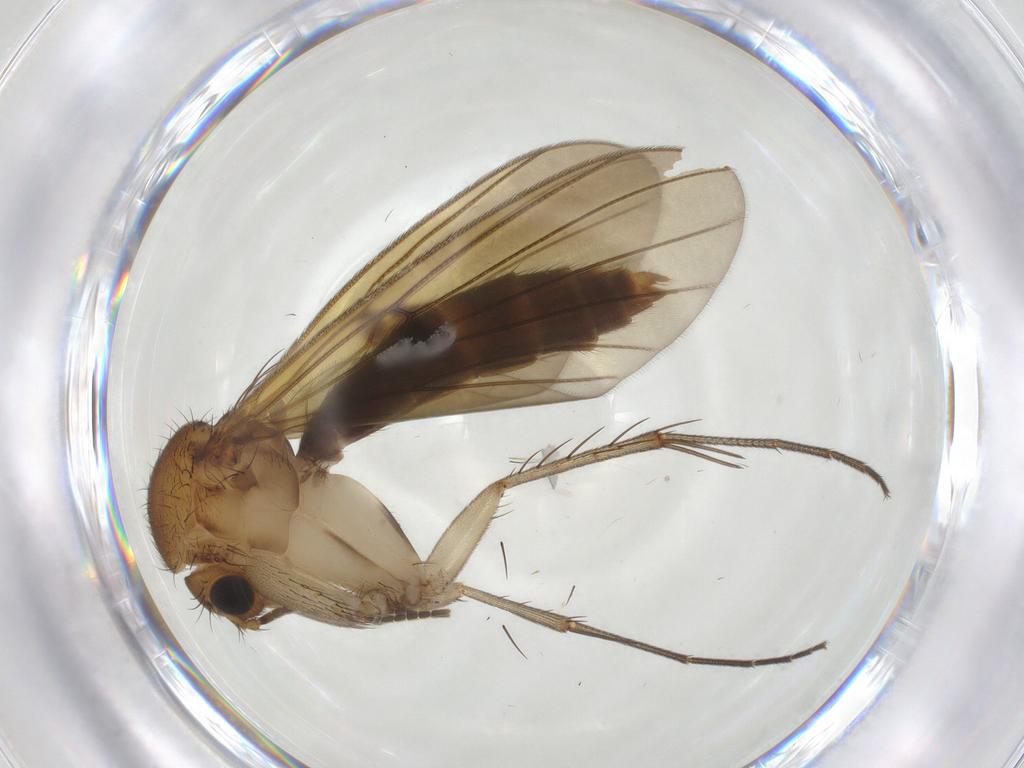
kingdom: Animalia
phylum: Arthropoda
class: Insecta
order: Diptera
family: Mycetophilidae
